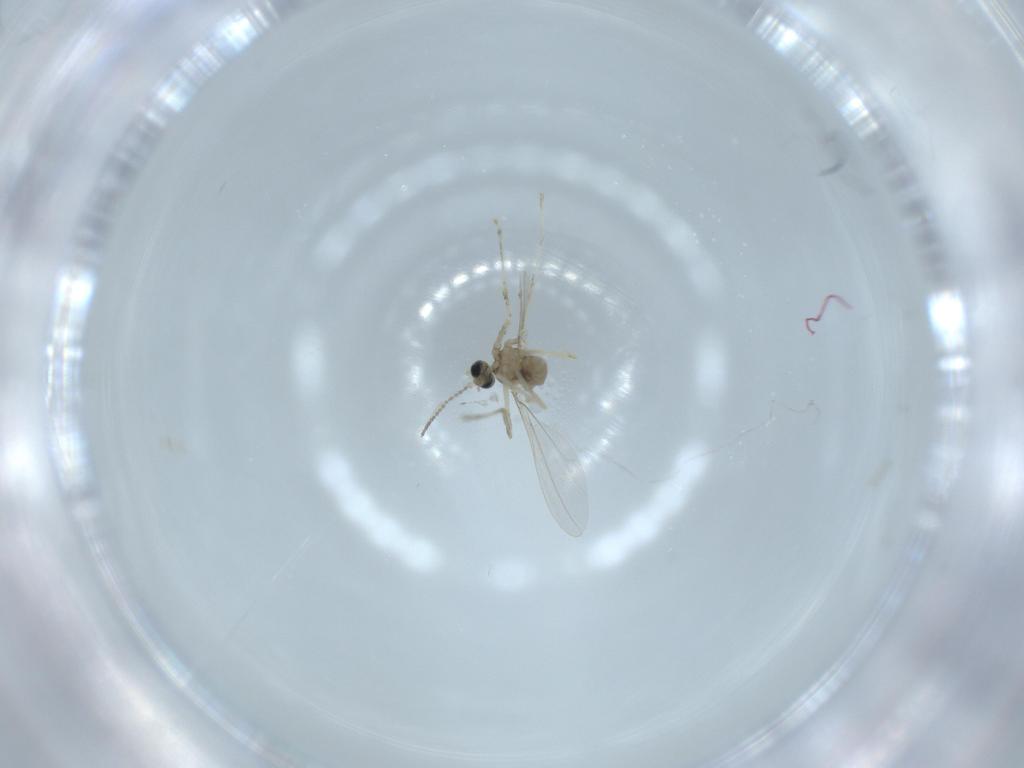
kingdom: Animalia
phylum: Arthropoda
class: Insecta
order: Diptera
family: Cecidomyiidae
